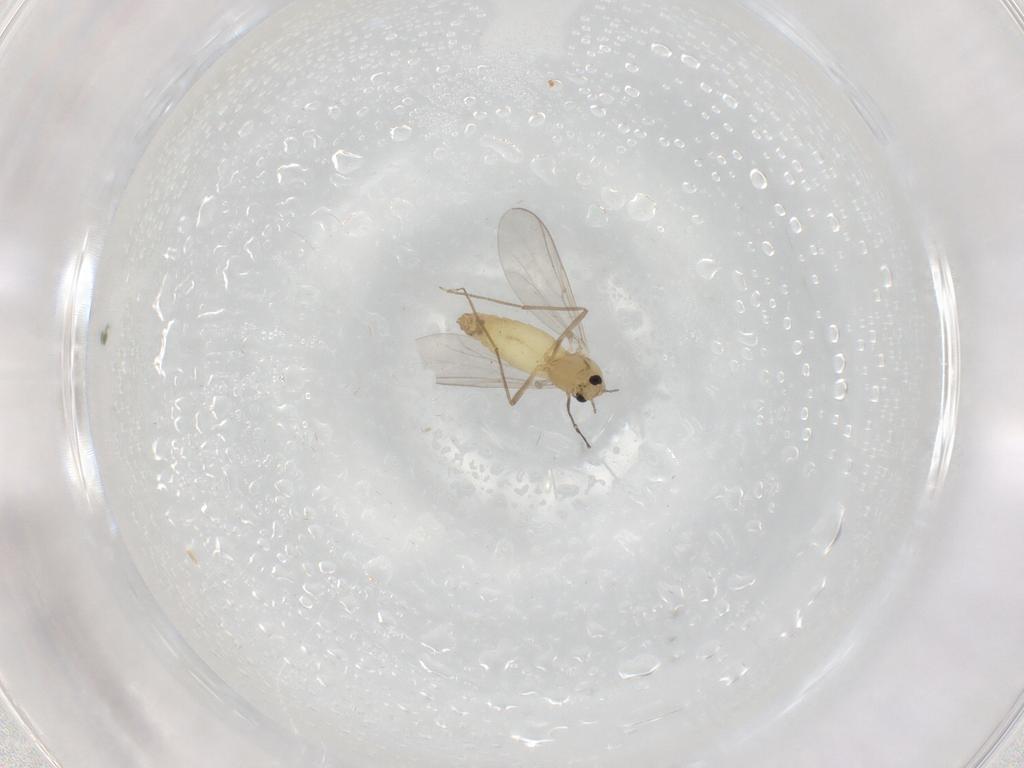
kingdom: Animalia
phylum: Arthropoda
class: Insecta
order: Diptera
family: Chironomidae
